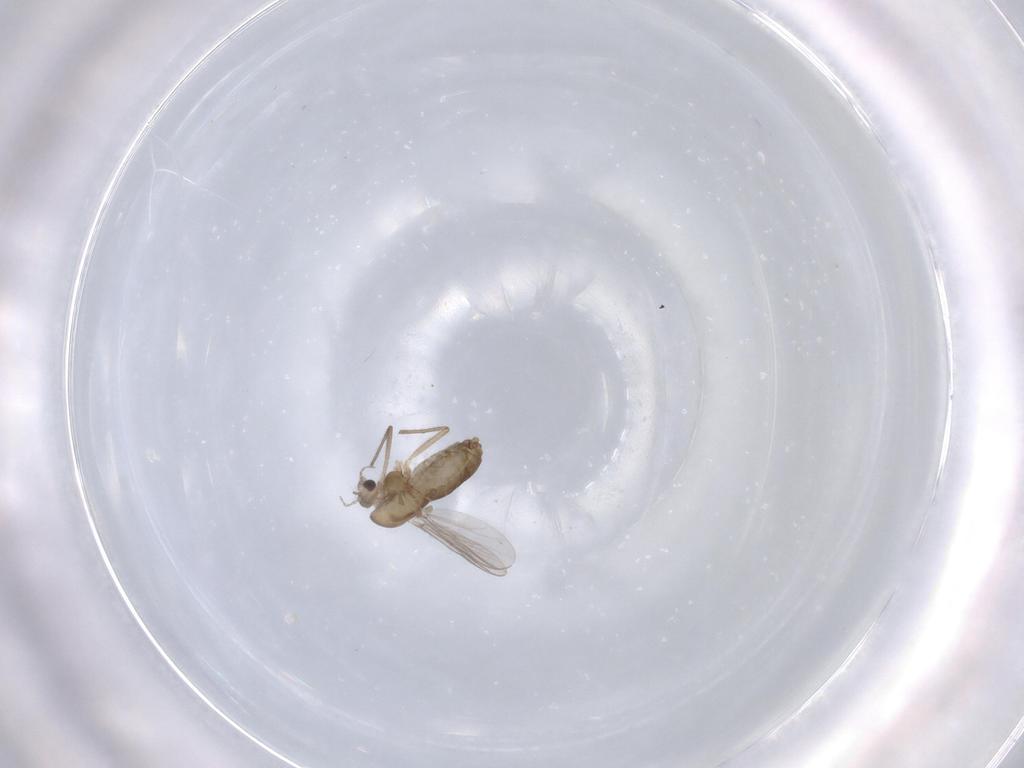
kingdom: Animalia
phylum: Arthropoda
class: Insecta
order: Diptera
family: Chironomidae
